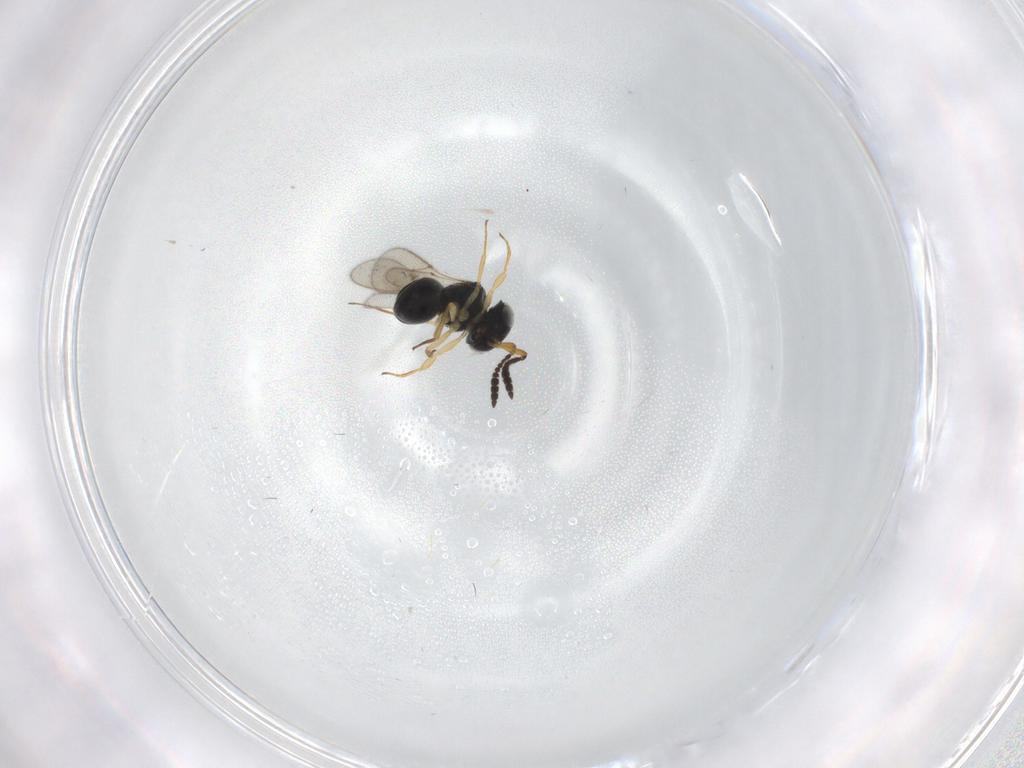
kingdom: Animalia
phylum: Arthropoda
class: Insecta
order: Hymenoptera
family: Scelionidae
